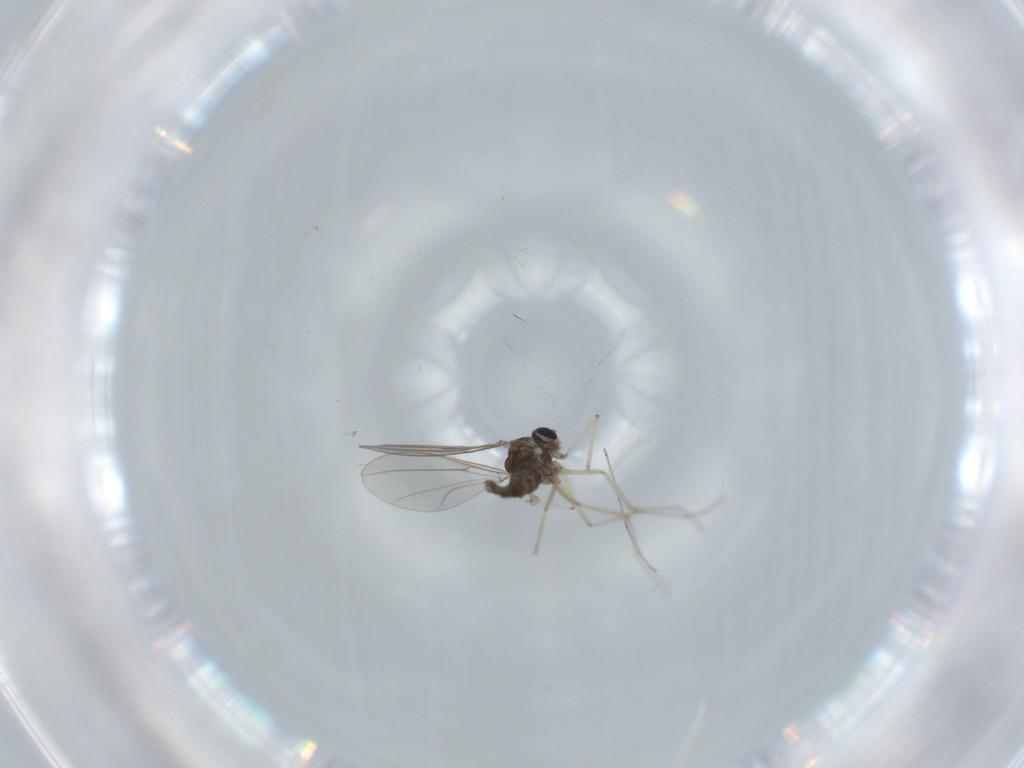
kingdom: Animalia
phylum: Arthropoda
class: Insecta
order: Diptera
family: Cecidomyiidae
